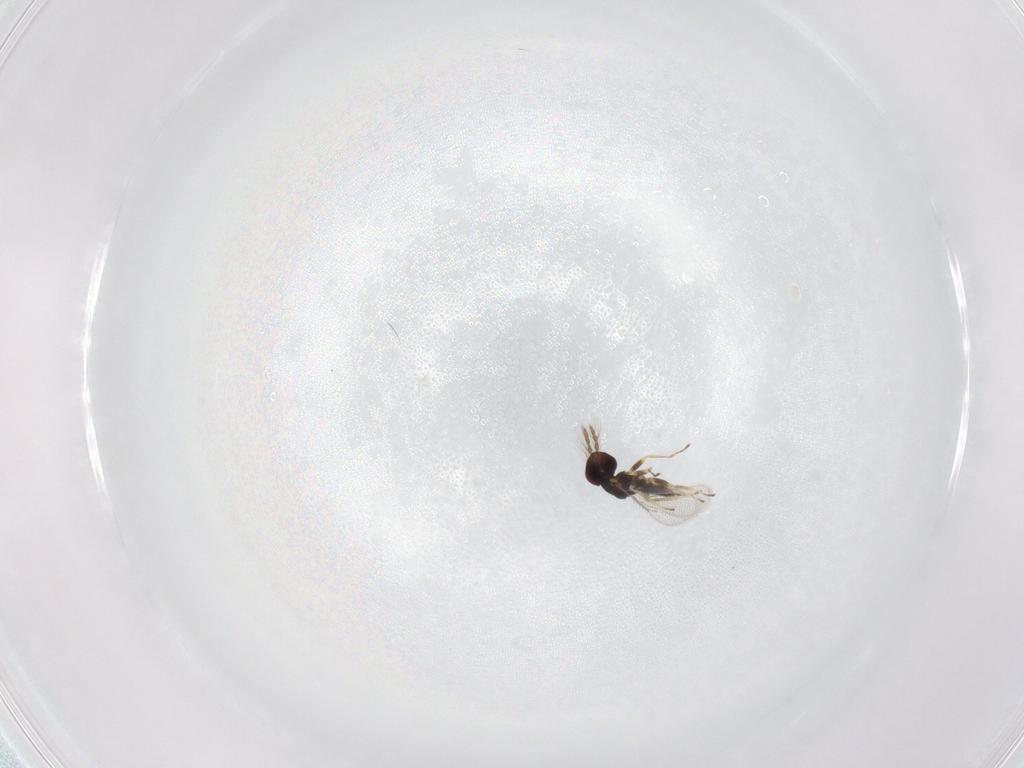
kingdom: Animalia
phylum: Arthropoda
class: Insecta
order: Hymenoptera
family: Eulophidae
